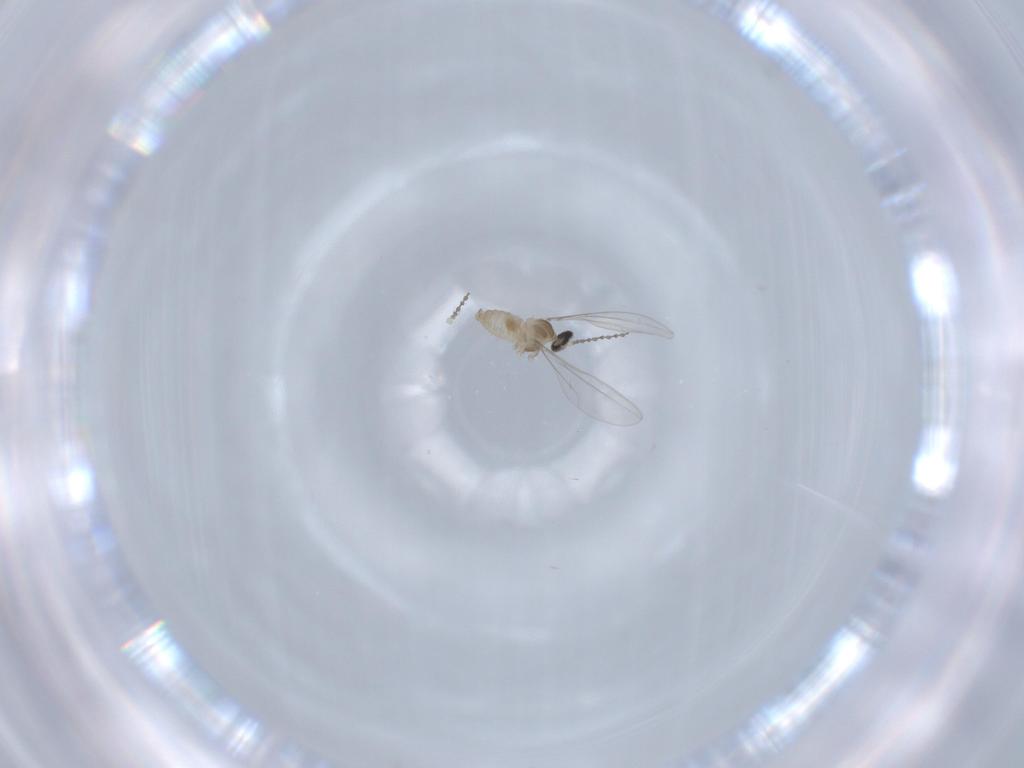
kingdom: Animalia
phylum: Arthropoda
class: Insecta
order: Diptera
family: Cecidomyiidae
